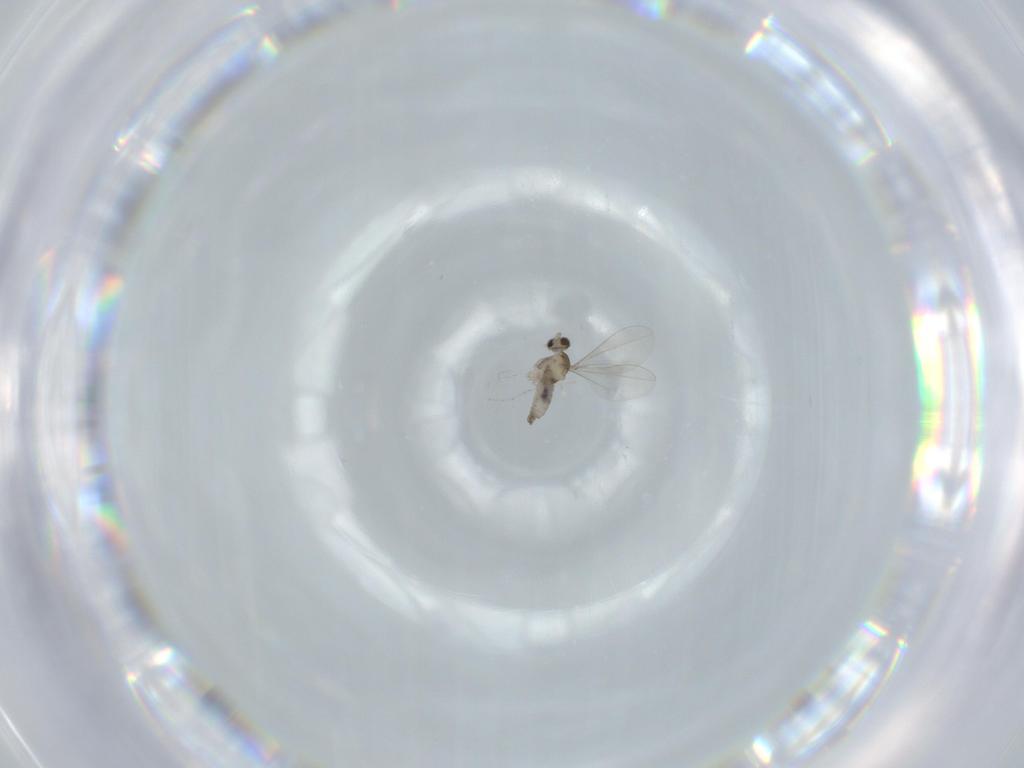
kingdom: Animalia
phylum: Arthropoda
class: Insecta
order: Diptera
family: Cecidomyiidae
